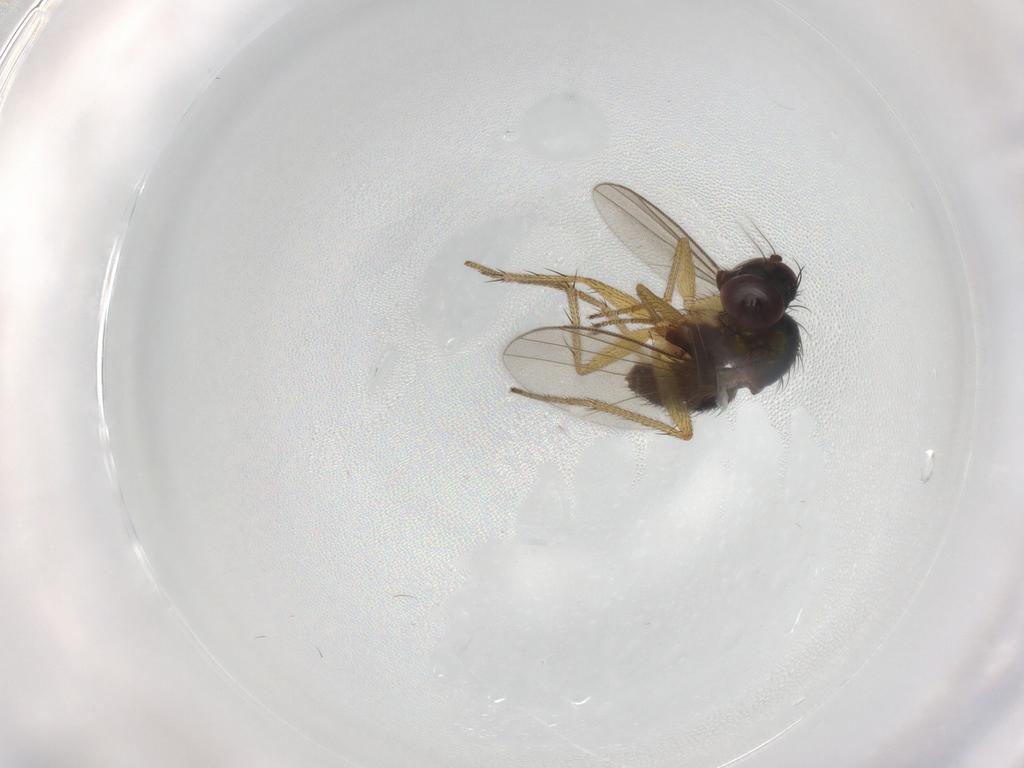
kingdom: Animalia
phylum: Arthropoda
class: Insecta
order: Diptera
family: Dolichopodidae
